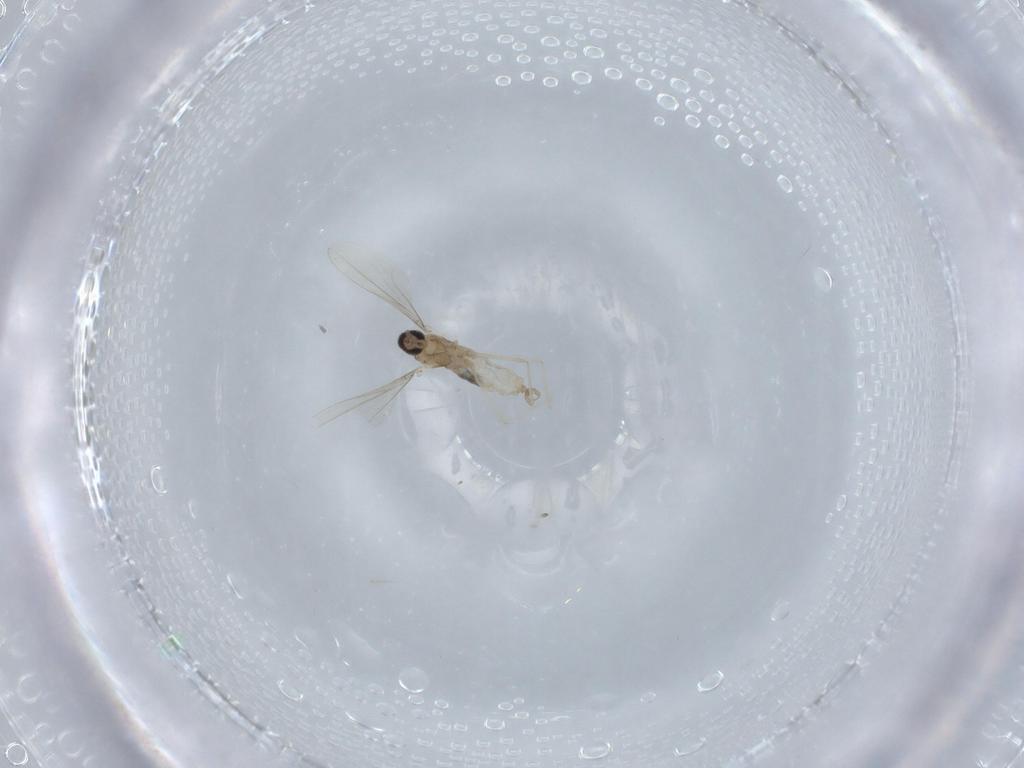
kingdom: Animalia
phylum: Arthropoda
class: Insecta
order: Diptera
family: Cecidomyiidae
